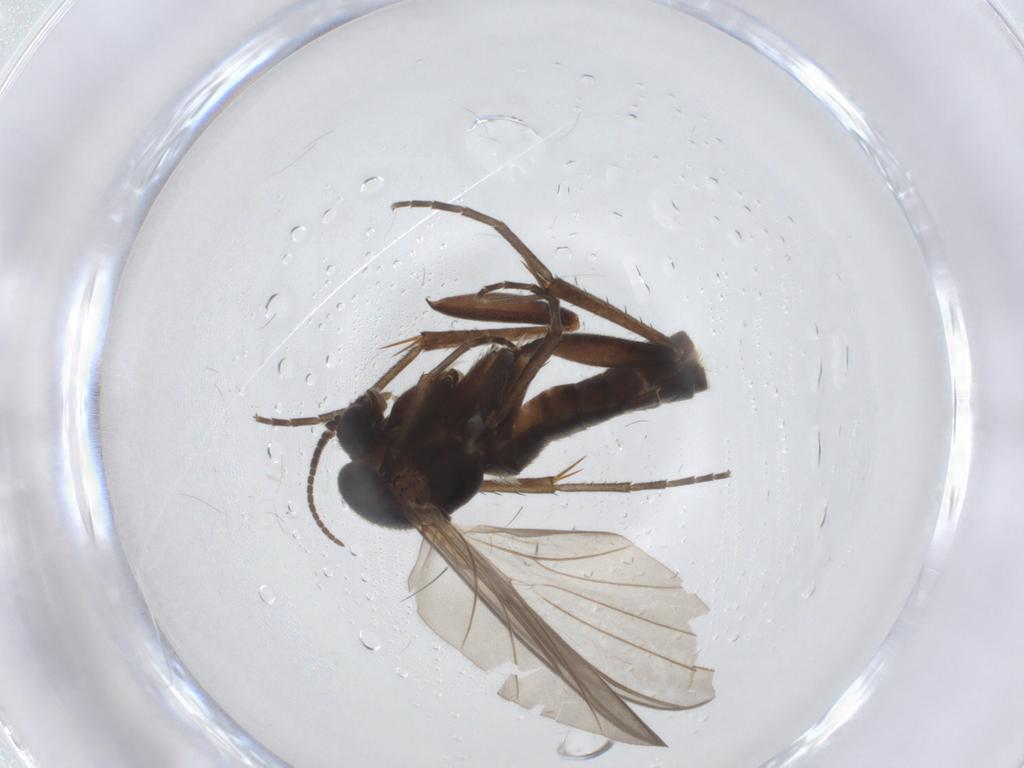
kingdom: Animalia
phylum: Arthropoda
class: Insecta
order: Diptera
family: Mycetophilidae
